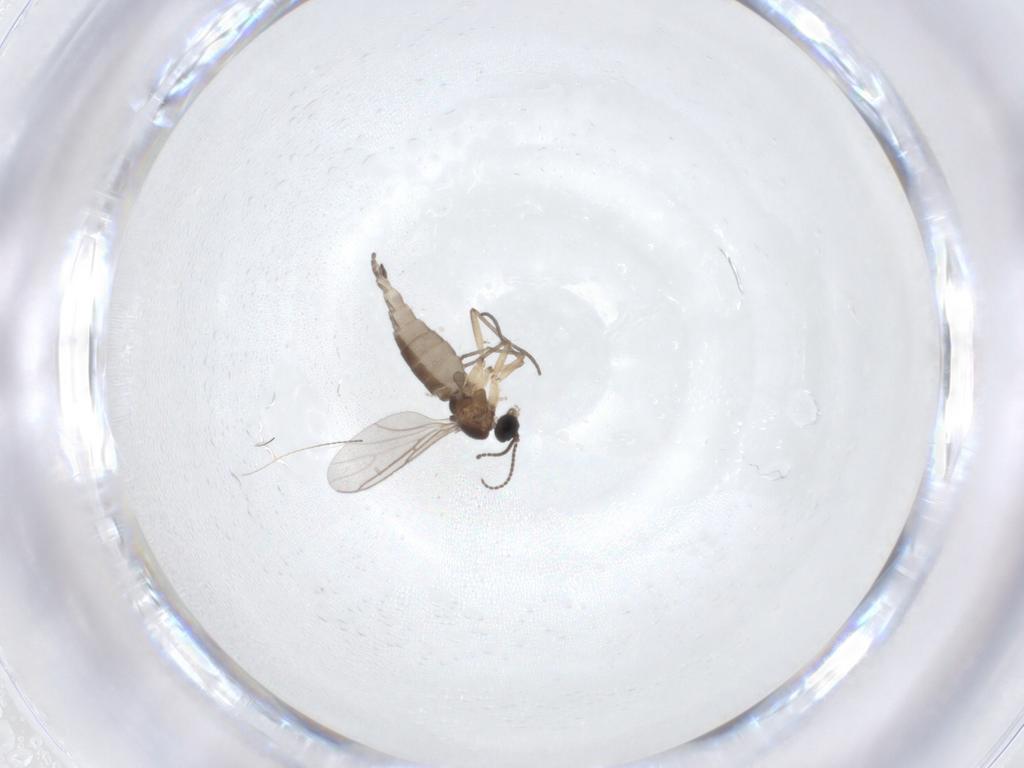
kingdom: Animalia
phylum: Arthropoda
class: Insecta
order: Diptera
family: Sciaridae
